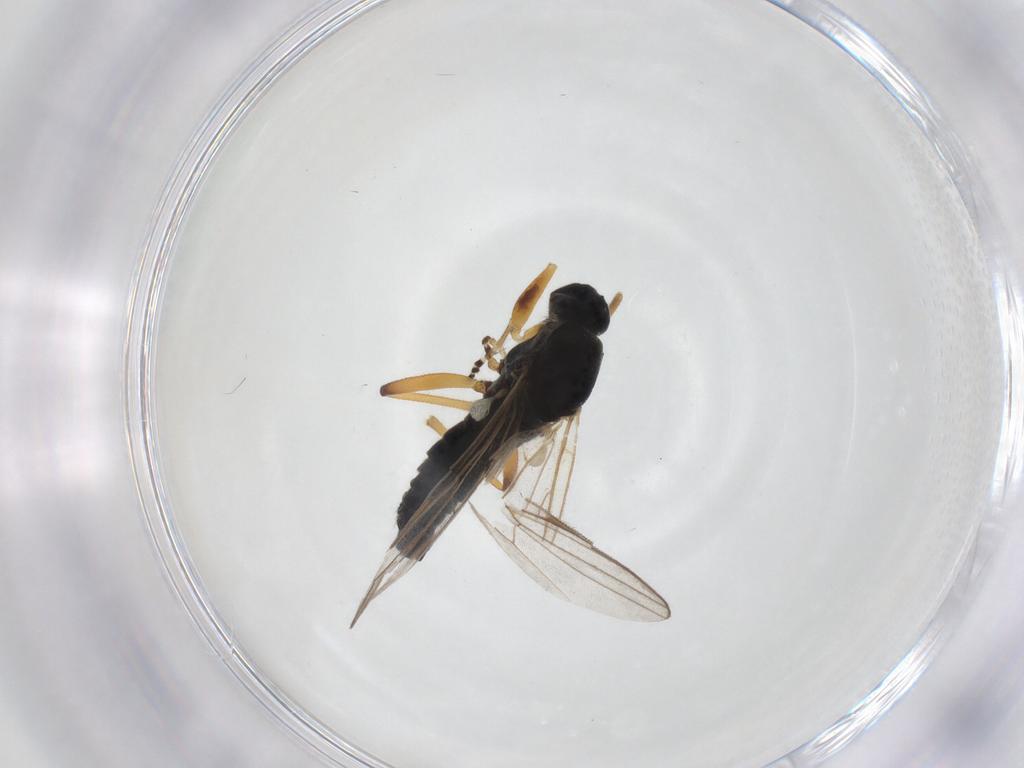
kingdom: Animalia
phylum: Arthropoda
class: Insecta
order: Diptera
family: Hybotidae
